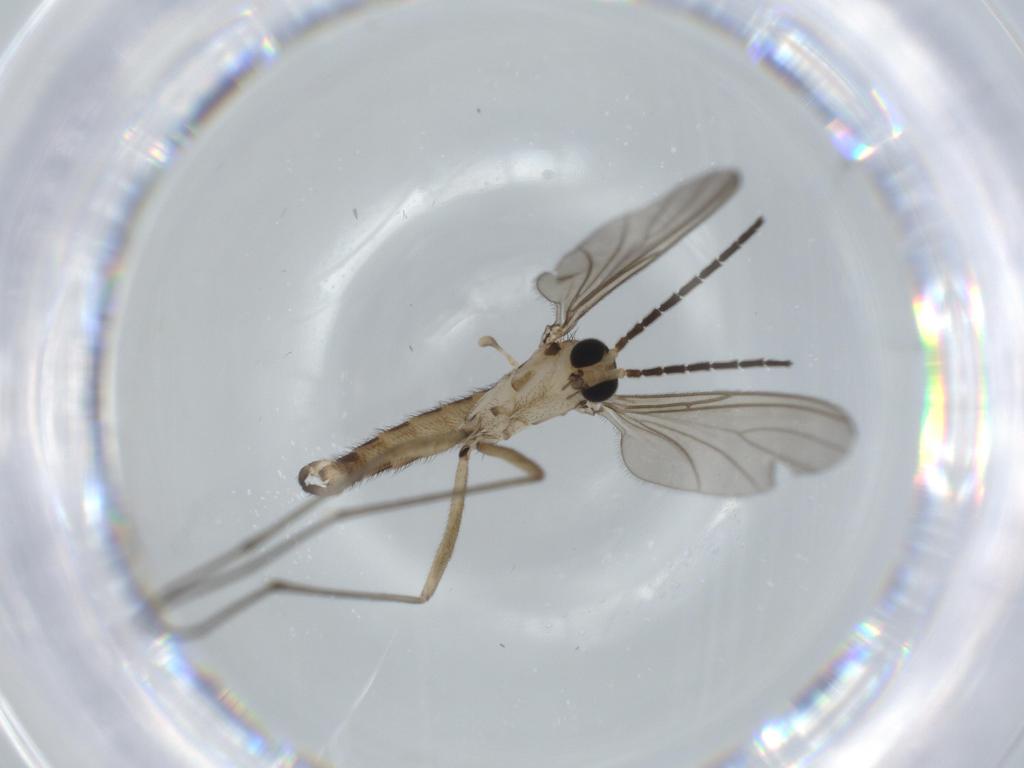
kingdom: Animalia
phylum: Arthropoda
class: Insecta
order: Diptera
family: Sciaridae
